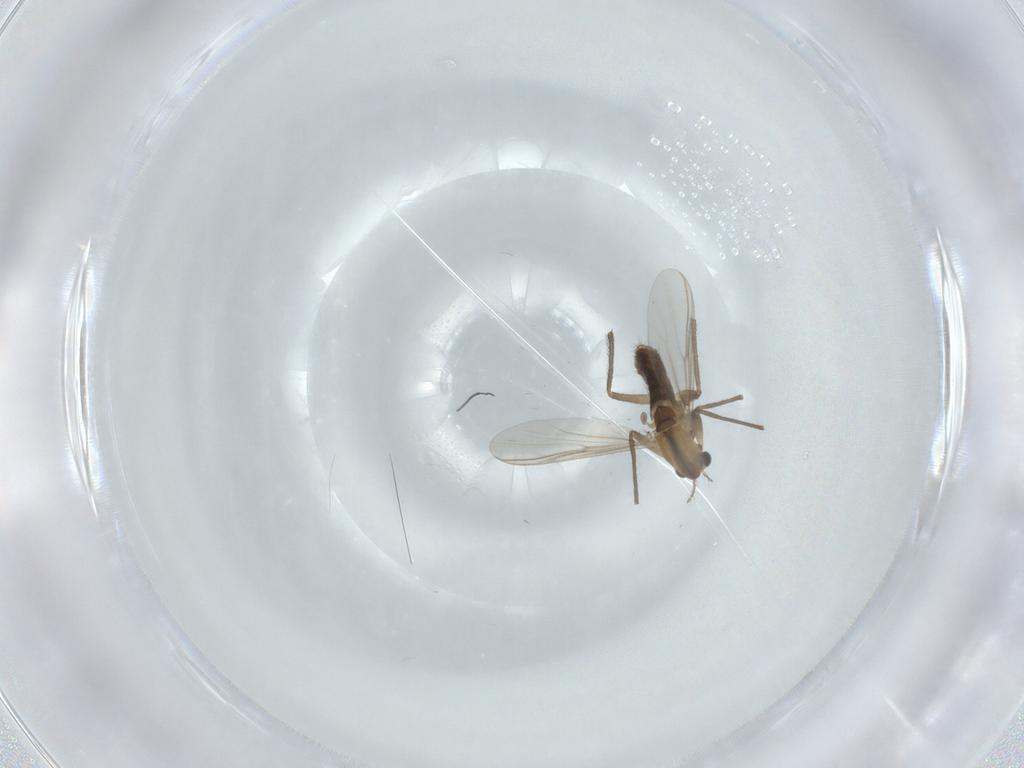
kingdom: Animalia
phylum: Arthropoda
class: Insecta
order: Diptera
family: Chironomidae
